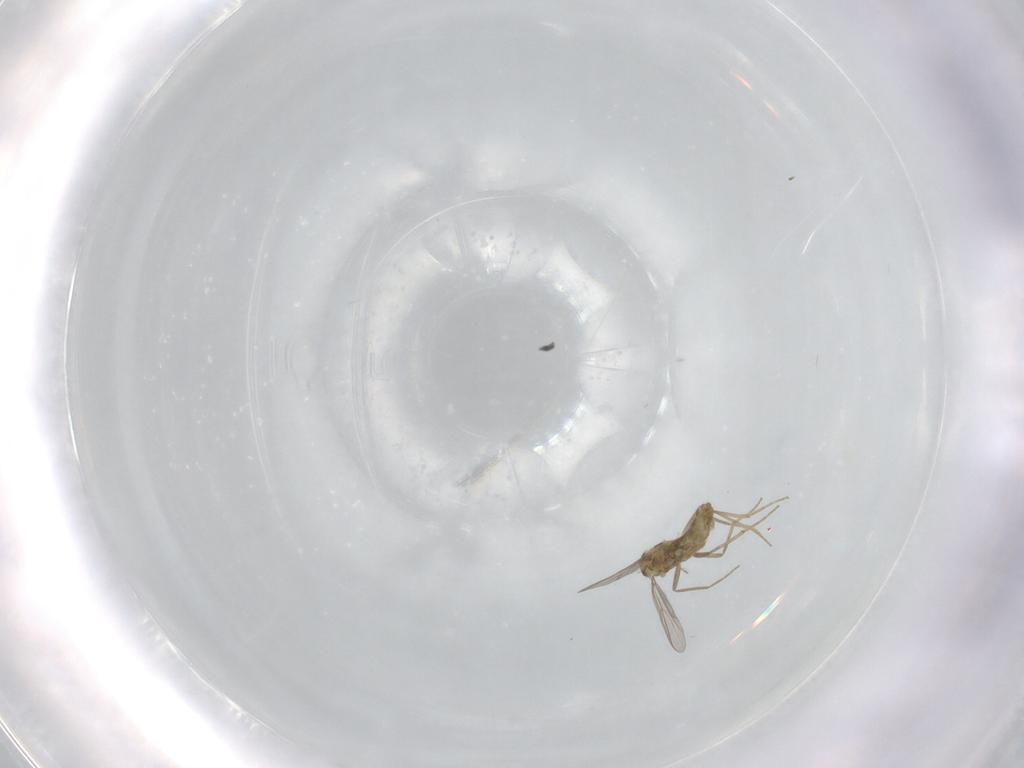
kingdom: Animalia
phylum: Arthropoda
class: Insecta
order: Diptera
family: Chironomidae
